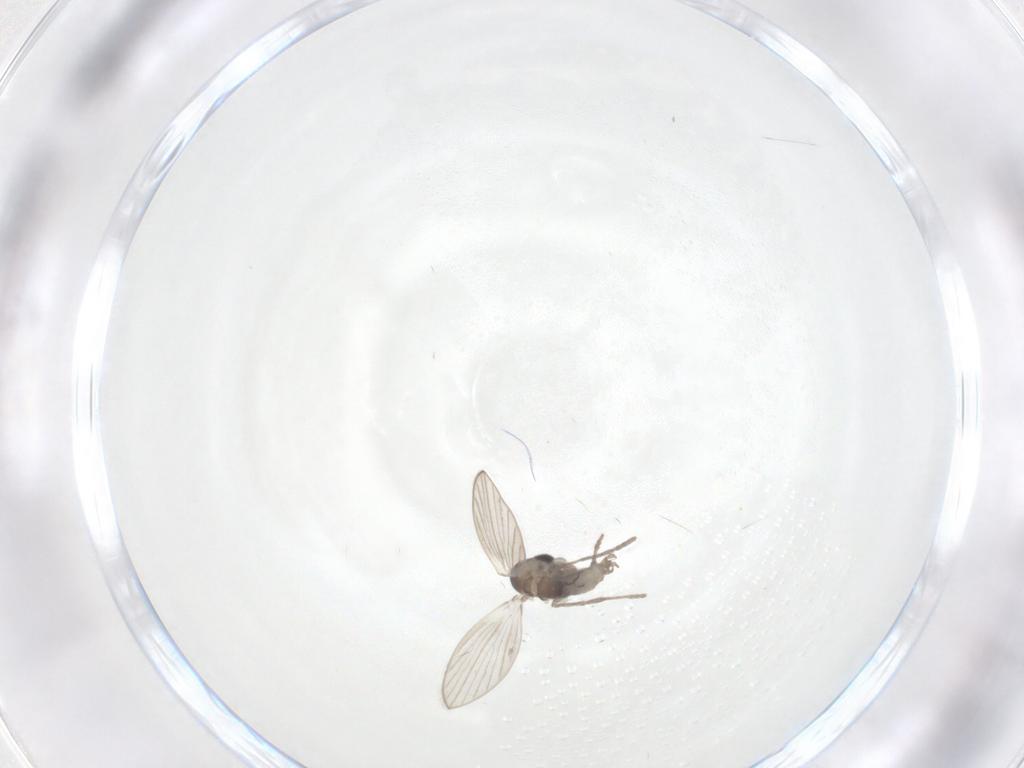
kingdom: Animalia
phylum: Arthropoda
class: Insecta
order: Diptera
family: Psychodidae
